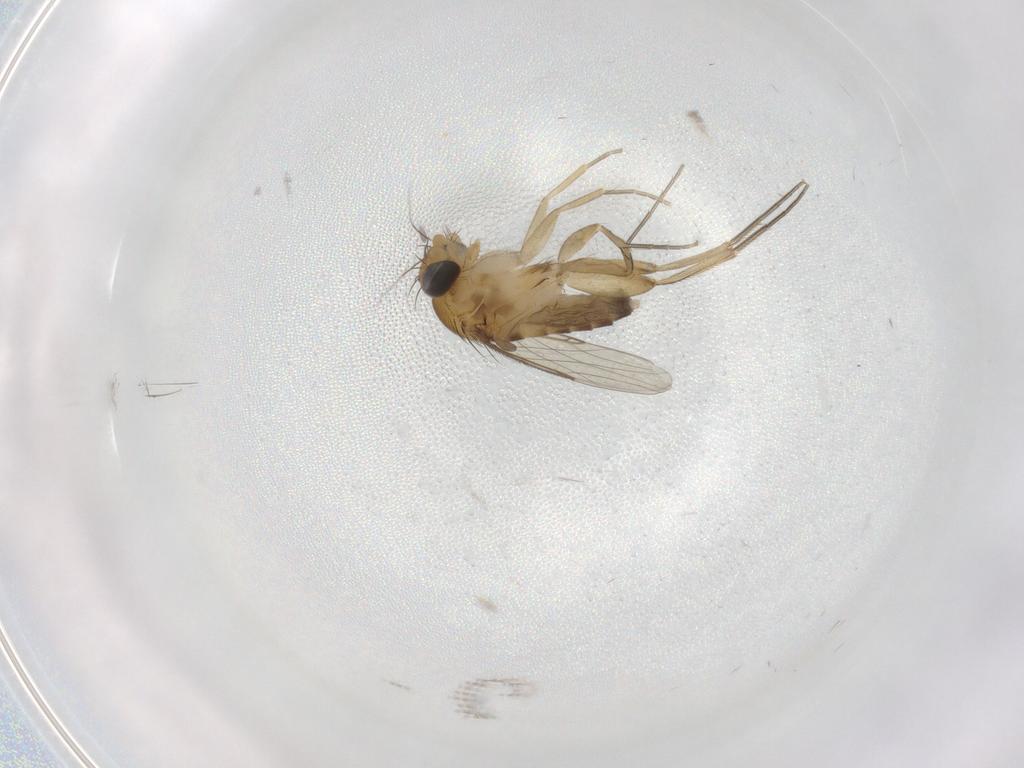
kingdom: Animalia
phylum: Arthropoda
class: Insecta
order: Diptera
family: Phoridae
